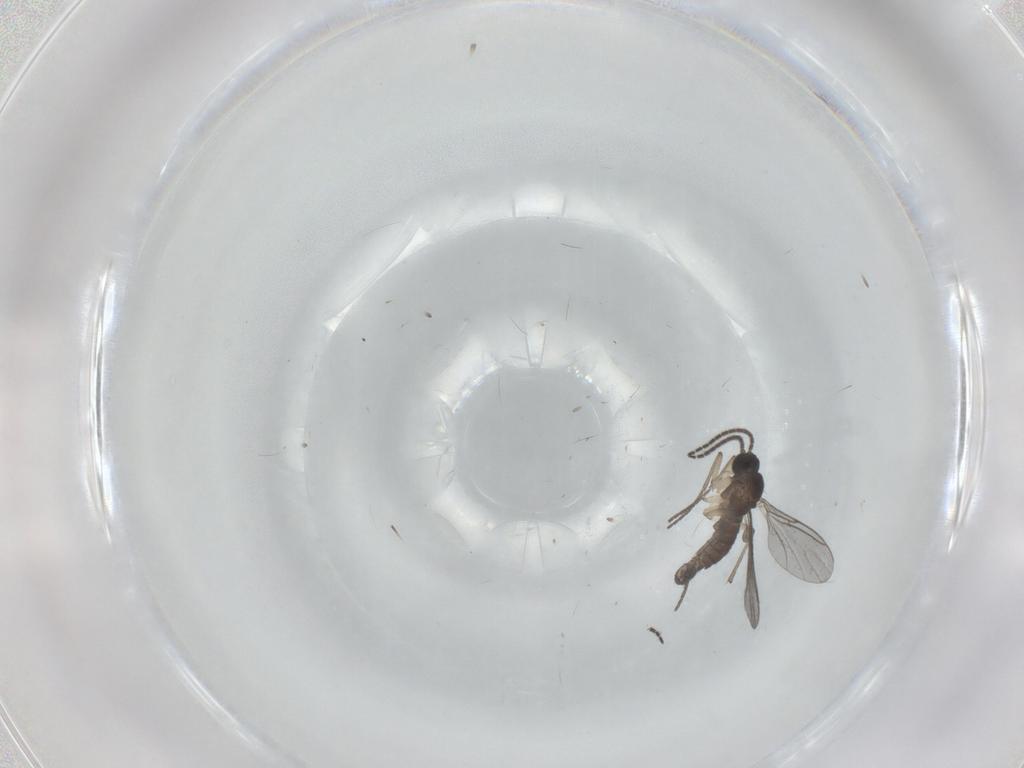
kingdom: Animalia
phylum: Arthropoda
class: Insecta
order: Diptera
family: Sciaridae
